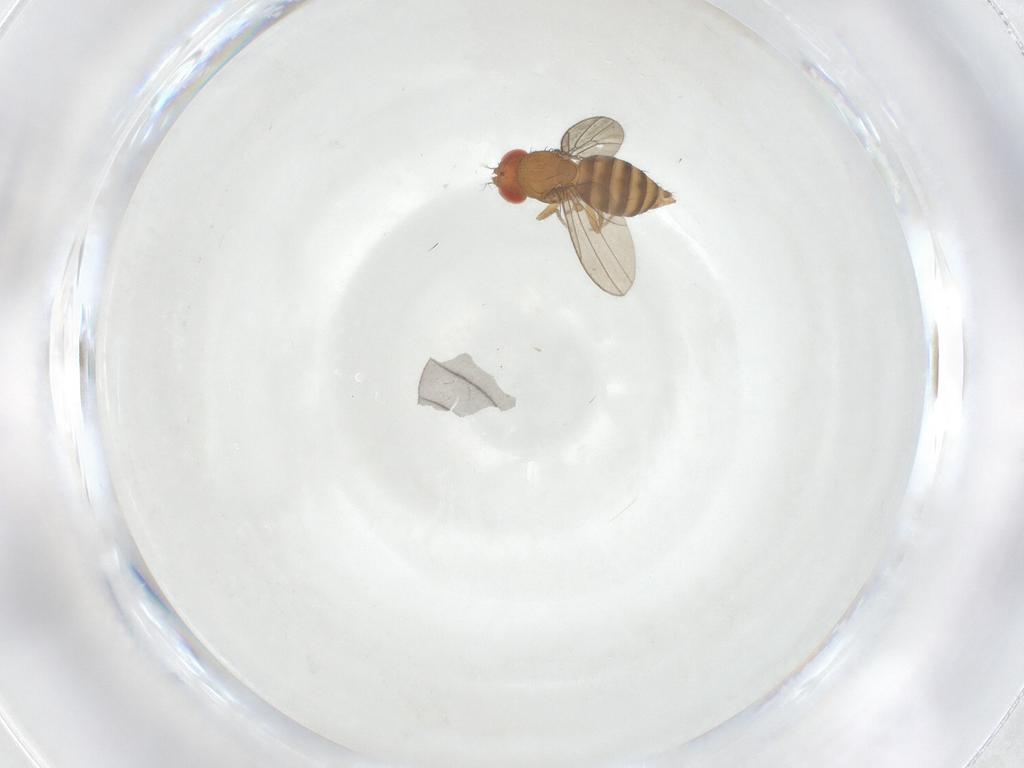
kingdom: Animalia
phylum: Arthropoda
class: Insecta
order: Diptera
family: Drosophilidae
